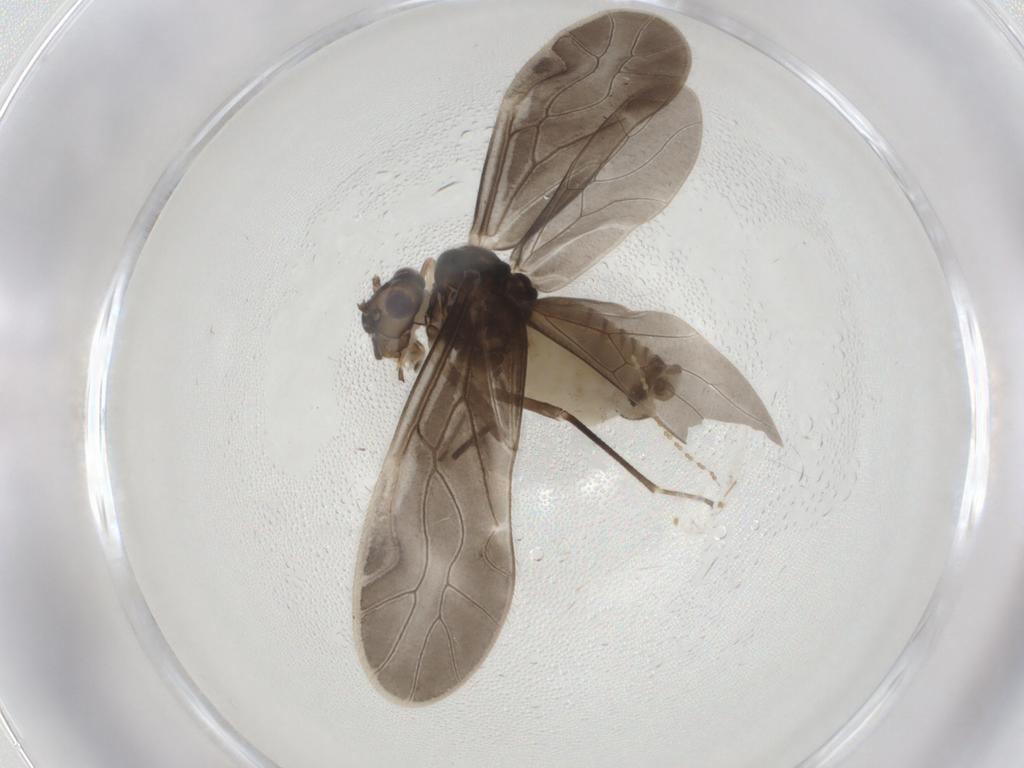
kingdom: Animalia
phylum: Arthropoda
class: Insecta
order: Psocodea
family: Caeciliusidae
